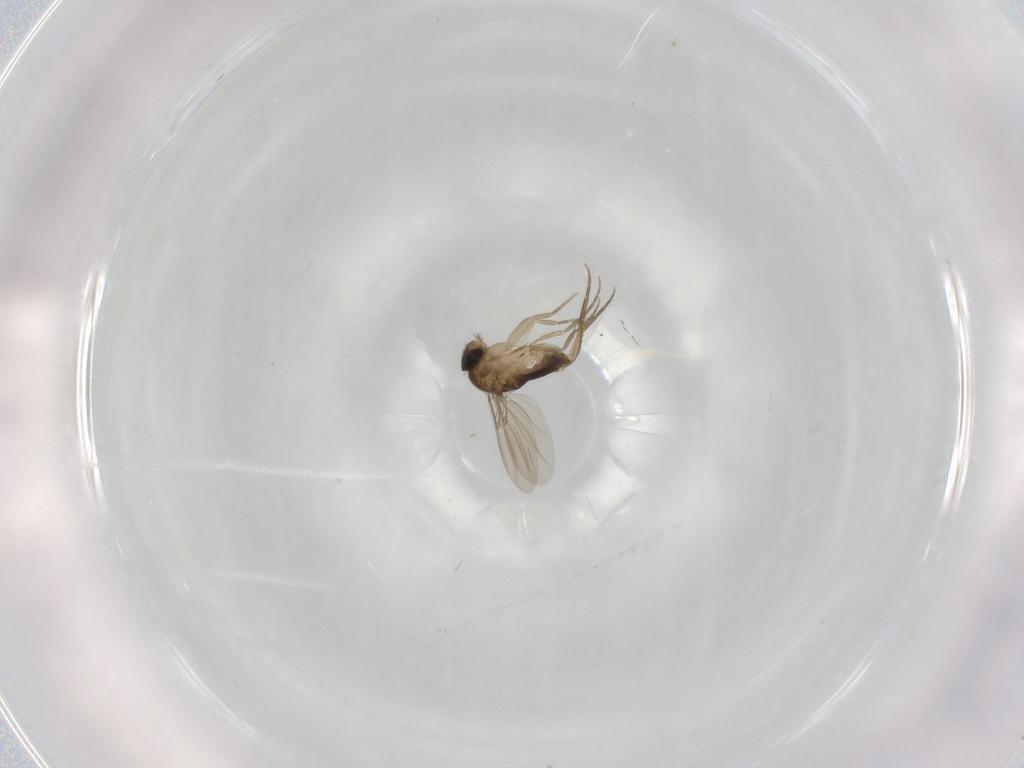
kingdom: Animalia
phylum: Arthropoda
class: Insecta
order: Diptera
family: Phoridae
